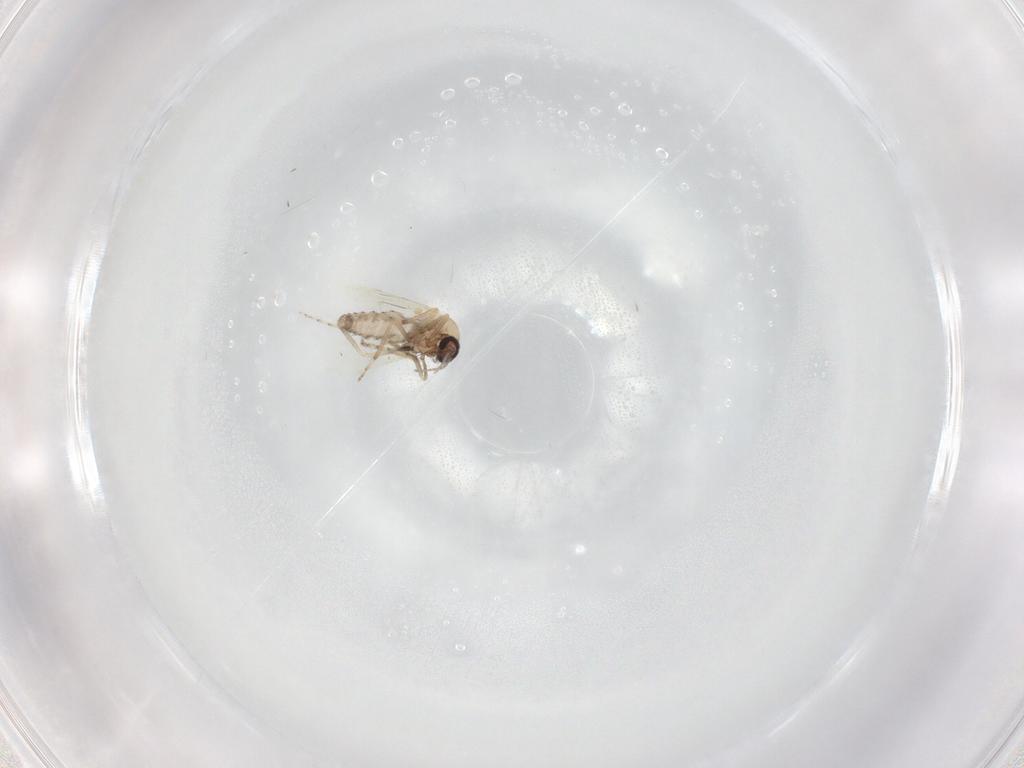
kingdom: Animalia
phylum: Arthropoda
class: Insecta
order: Diptera
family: Ceratopogonidae
